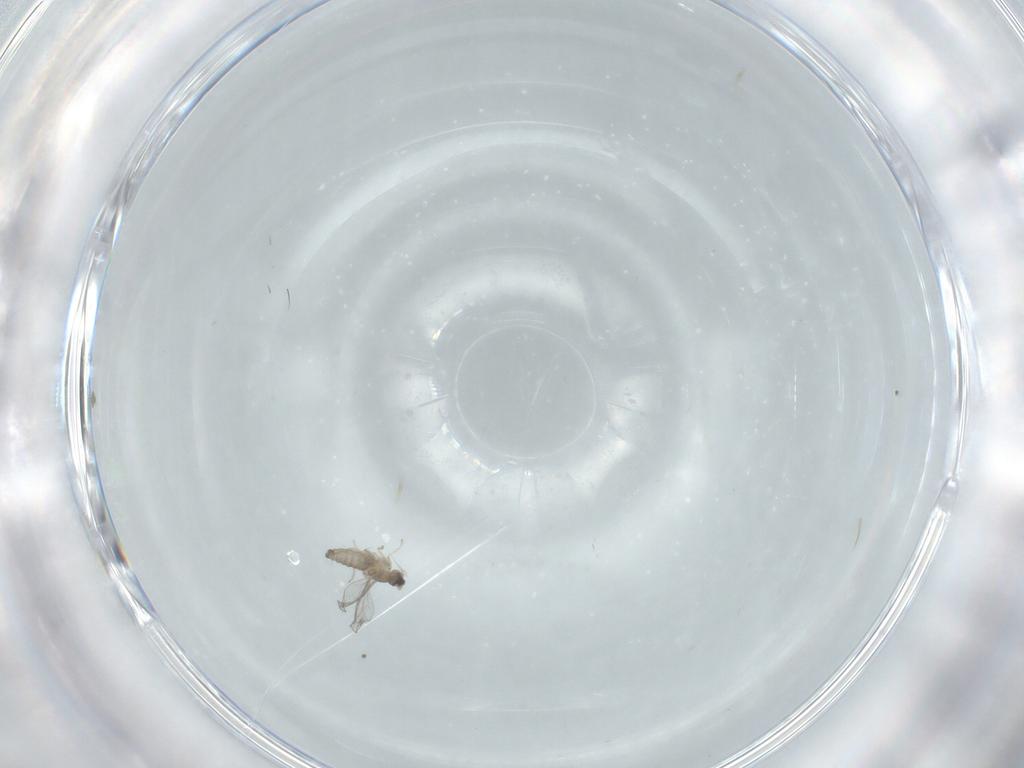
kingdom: Animalia
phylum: Arthropoda
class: Insecta
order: Diptera
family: Cecidomyiidae
